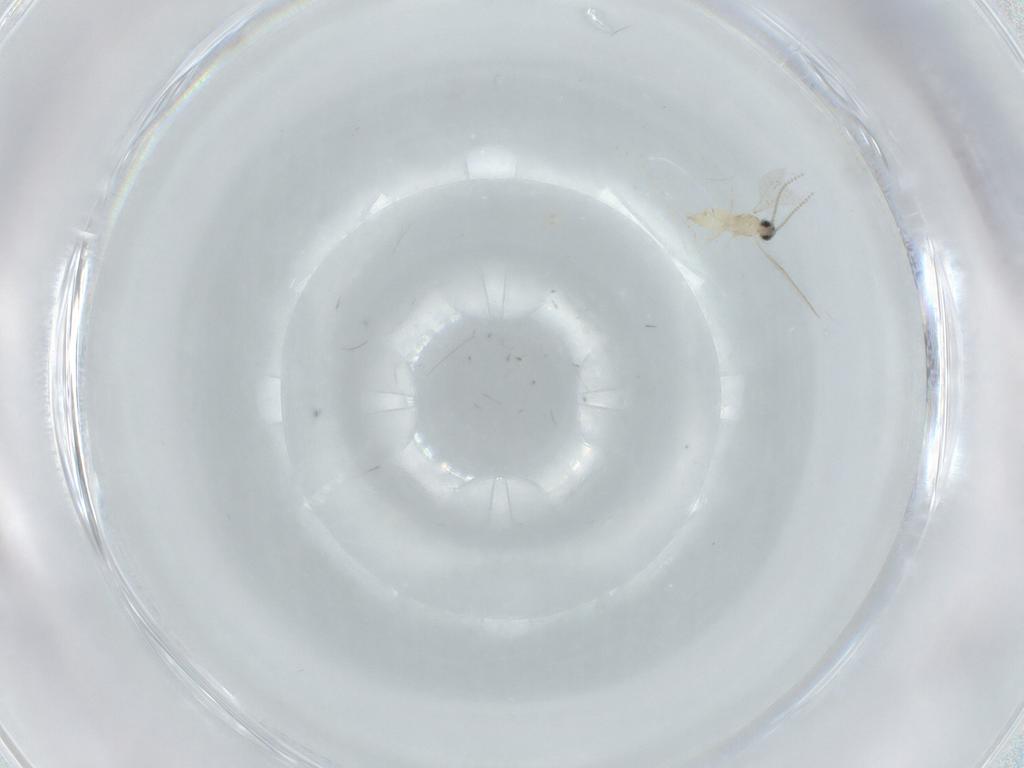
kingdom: Animalia
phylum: Arthropoda
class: Insecta
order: Diptera
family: Cecidomyiidae
